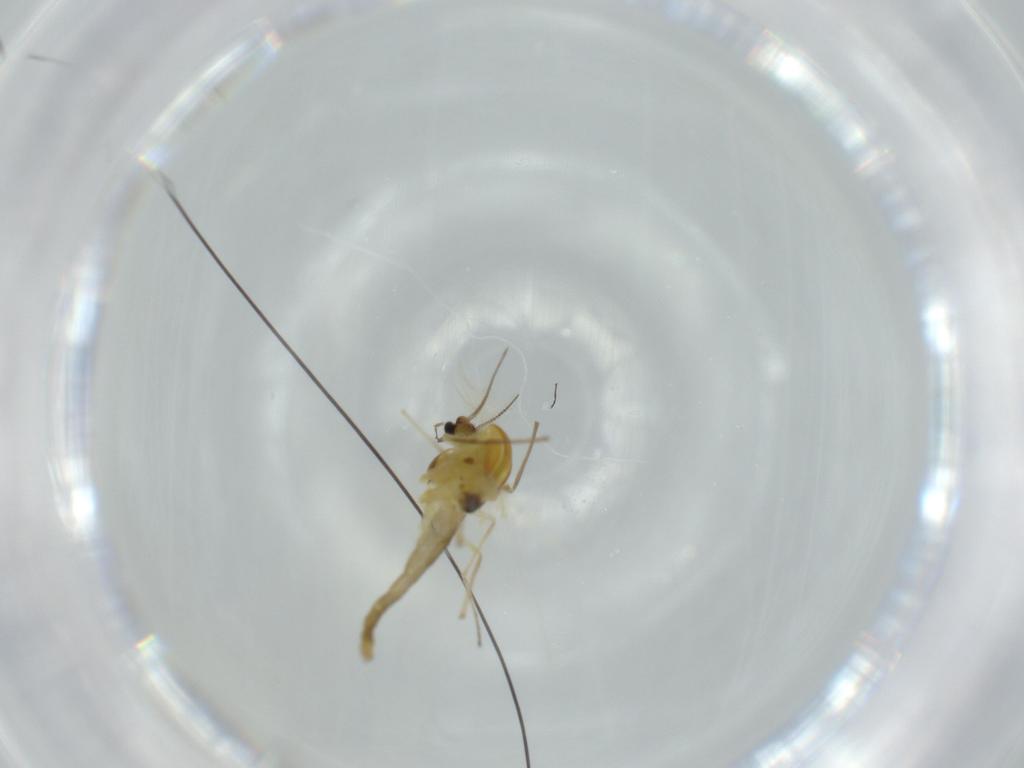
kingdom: Animalia
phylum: Arthropoda
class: Insecta
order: Diptera
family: Chironomidae
